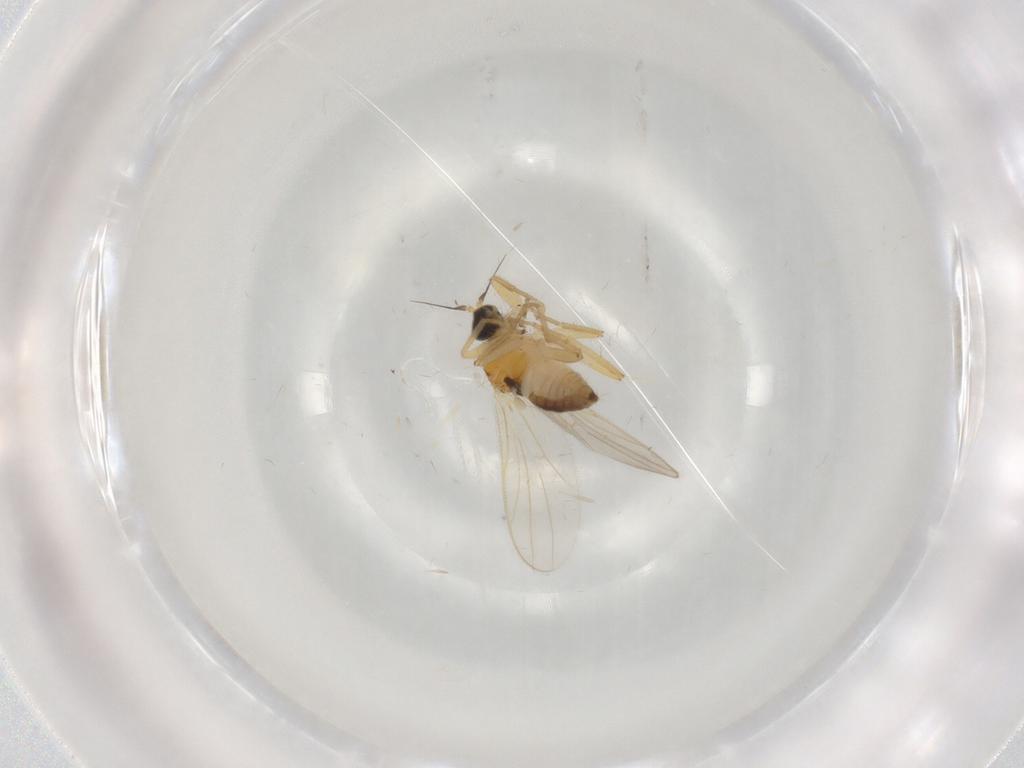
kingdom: Animalia
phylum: Arthropoda
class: Insecta
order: Diptera
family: Hybotidae
